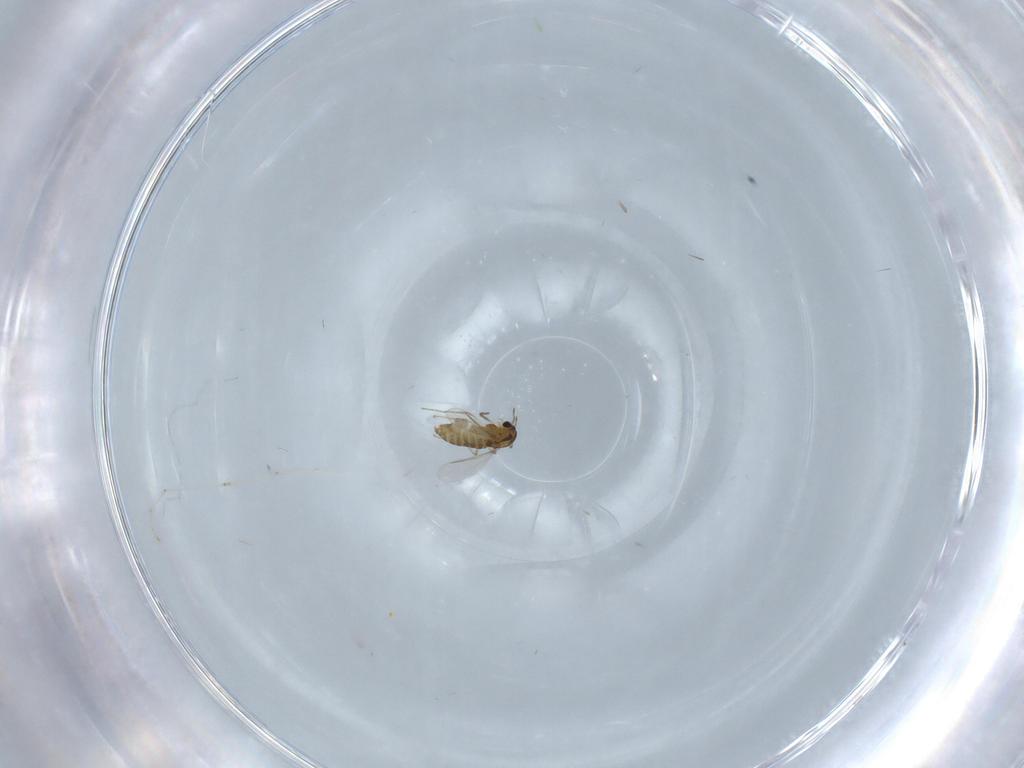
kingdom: Animalia
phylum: Arthropoda
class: Insecta
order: Diptera
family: Chironomidae
